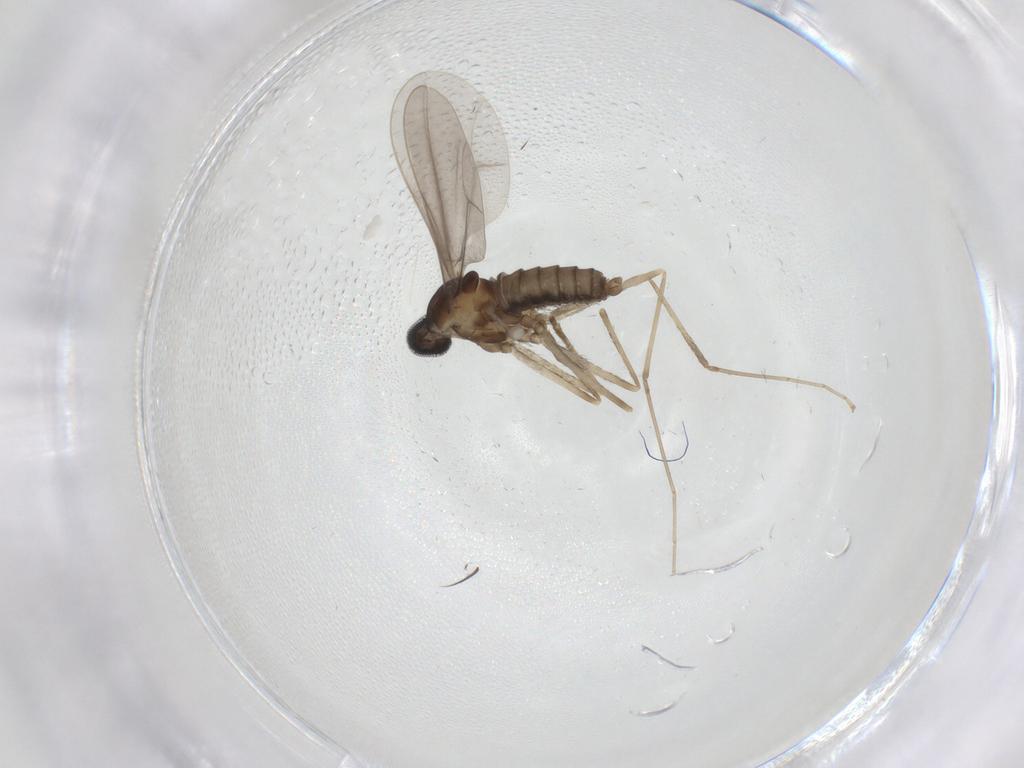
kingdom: Animalia
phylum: Arthropoda
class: Insecta
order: Diptera
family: Cecidomyiidae
